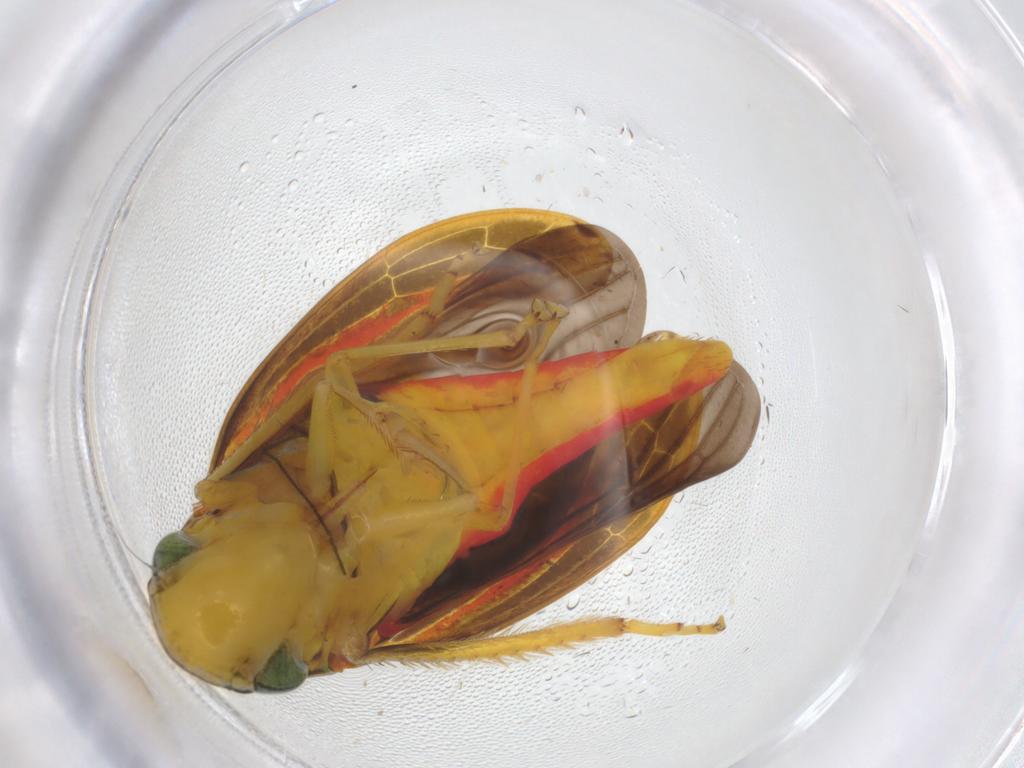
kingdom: Animalia
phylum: Arthropoda
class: Insecta
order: Hemiptera
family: Cicadellidae
